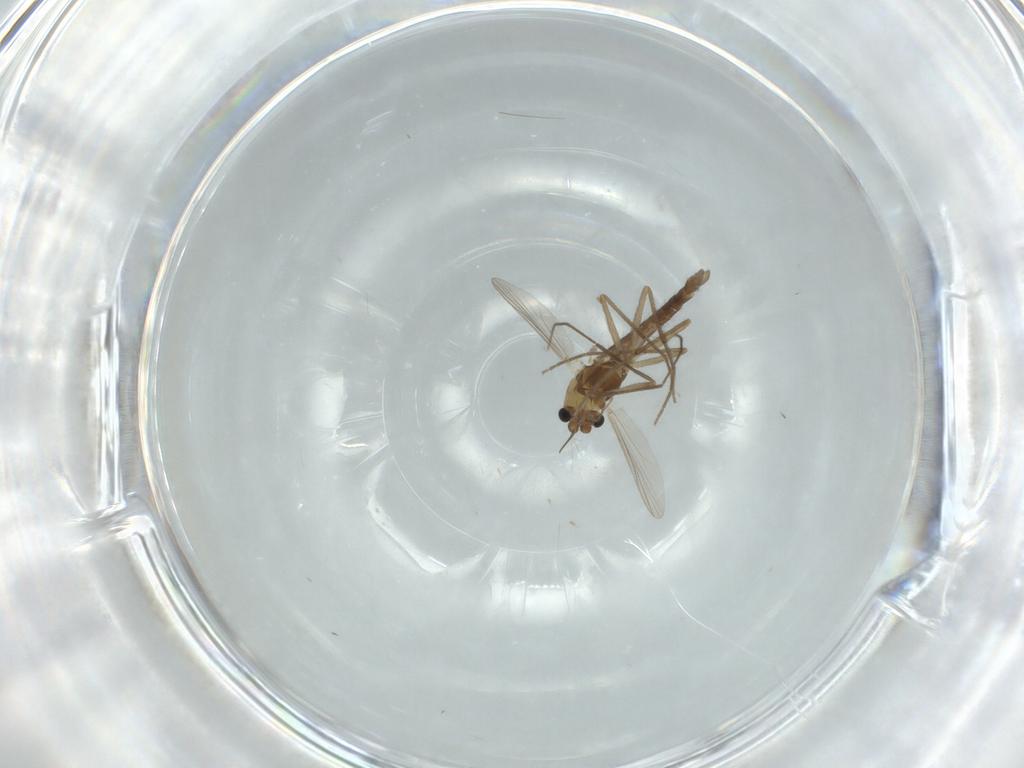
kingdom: Animalia
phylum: Arthropoda
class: Insecta
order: Diptera
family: Chironomidae
